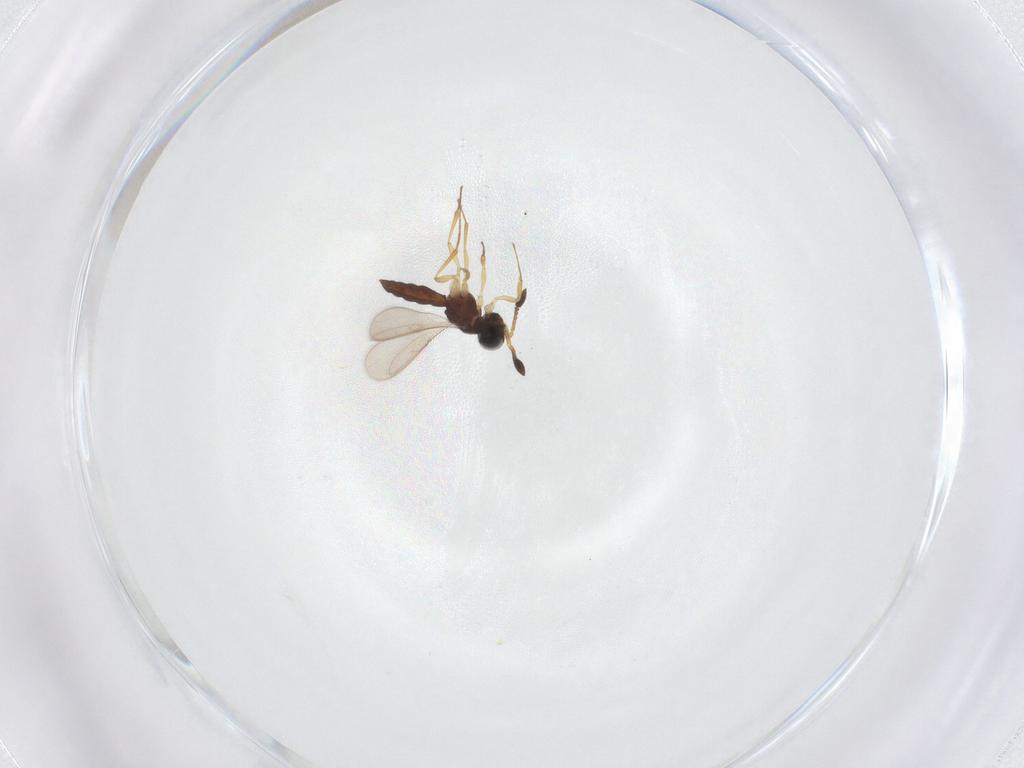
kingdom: Animalia
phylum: Arthropoda
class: Insecta
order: Hymenoptera
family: Scelionidae
